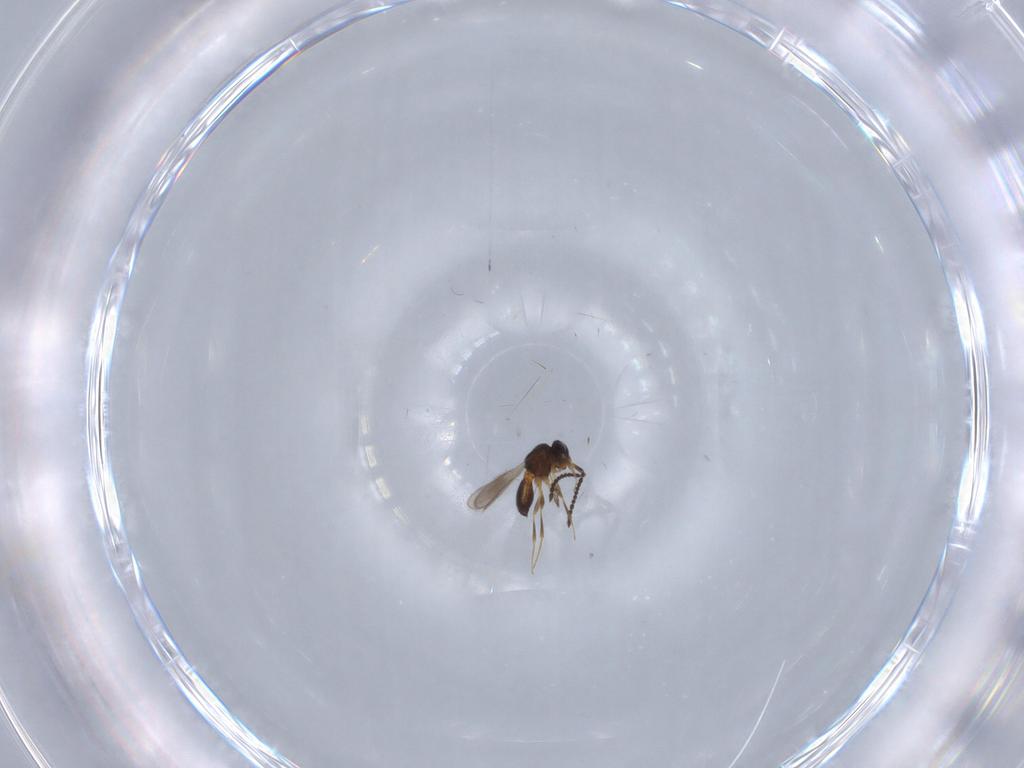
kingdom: Animalia
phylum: Arthropoda
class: Insecta
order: Hymenoptera
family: Scelionidae
